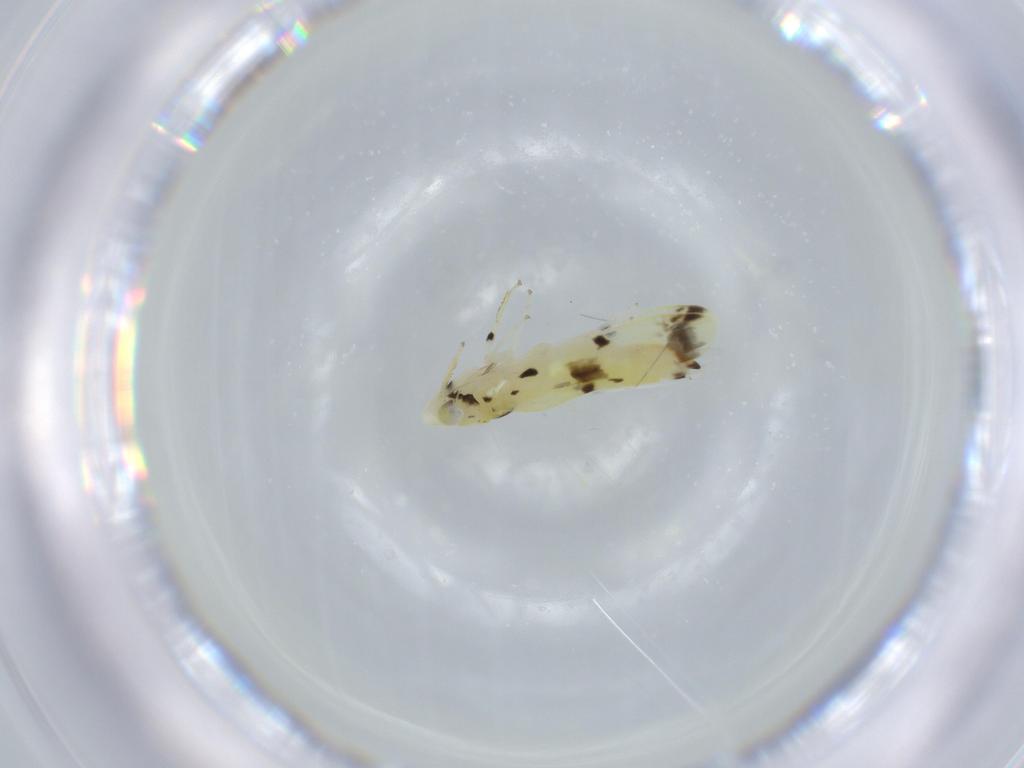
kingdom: Animalia
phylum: Arthropoda
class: Insecta
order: Hemiptera
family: Cicadellidae
